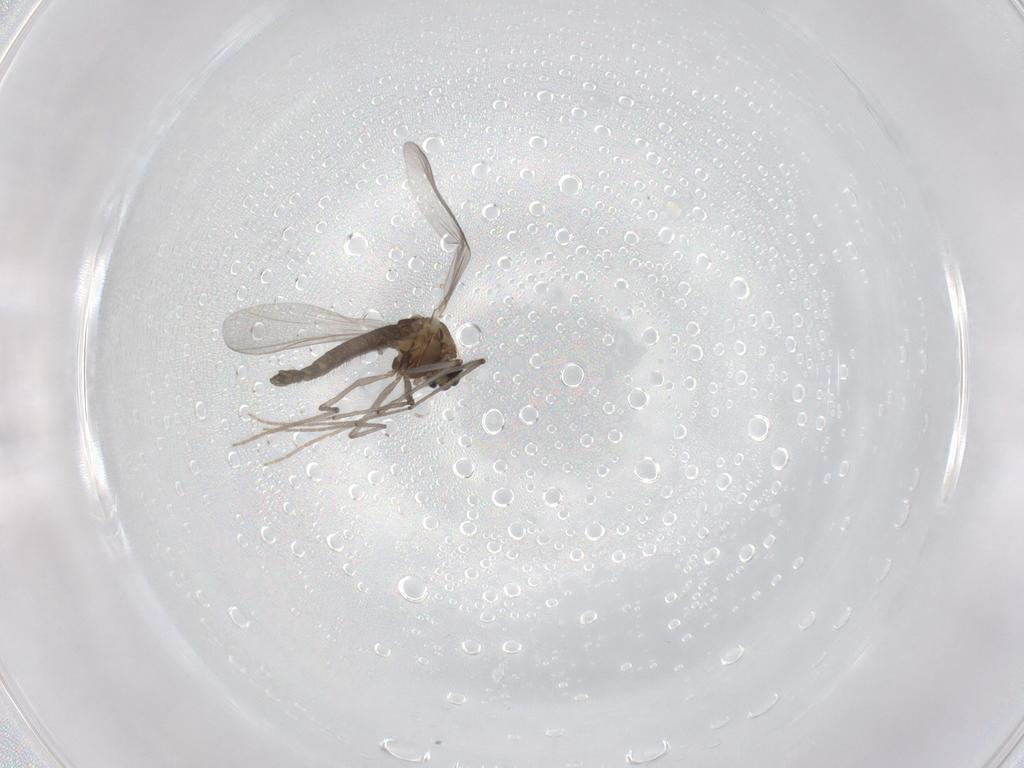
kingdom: Animalia
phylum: Arthropoda
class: Insecta
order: Diptera
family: Chironomidae
